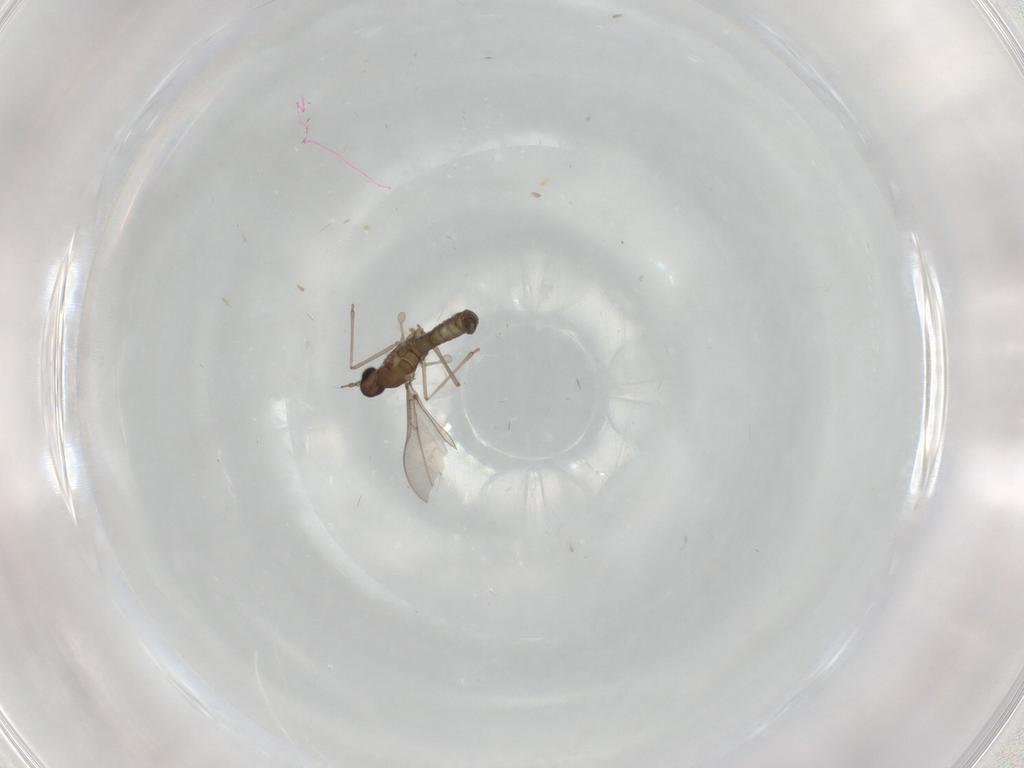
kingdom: Animalia
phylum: Arthropoda
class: Insecta
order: Diptera
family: Cecidomyiidae
